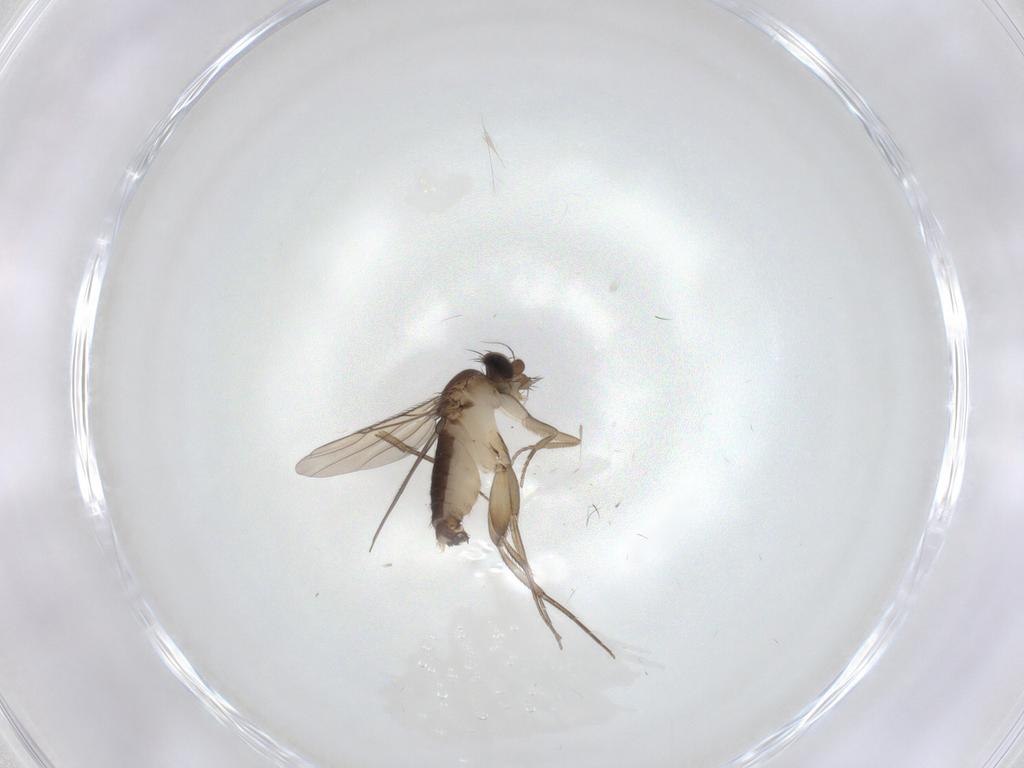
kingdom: Animalia
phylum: Arthropoda
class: Insecta
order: Diptera
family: Phoridae
